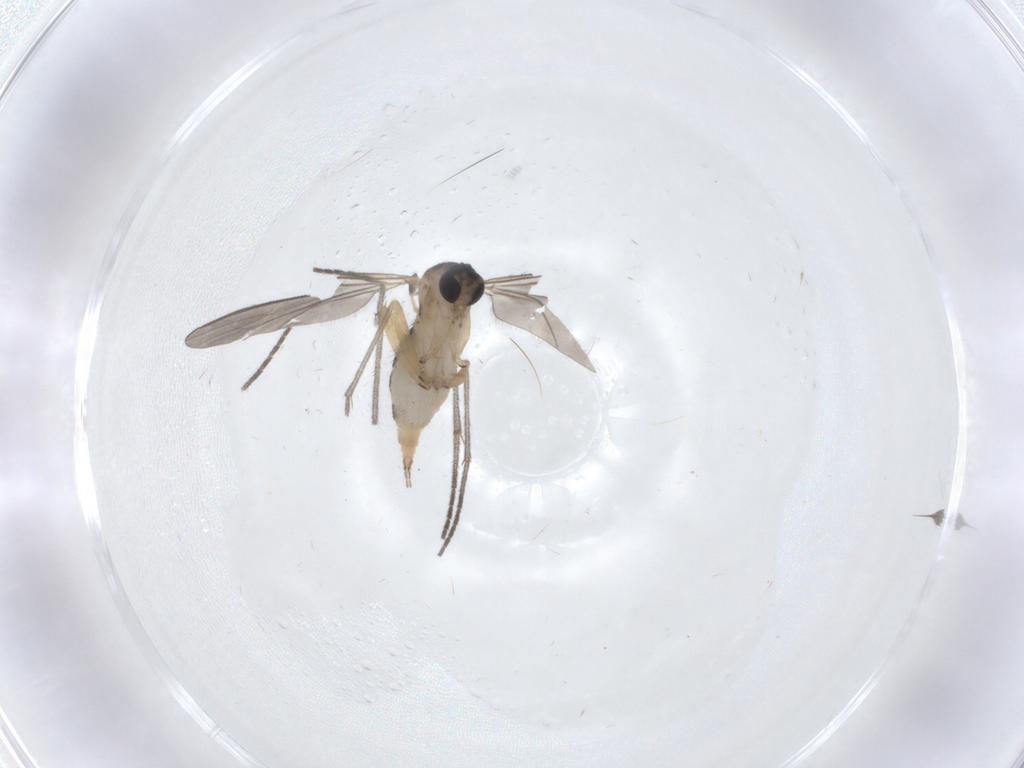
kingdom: Animalia
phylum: Arthropoda
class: Insecta
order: Diptera
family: Sciaridae
